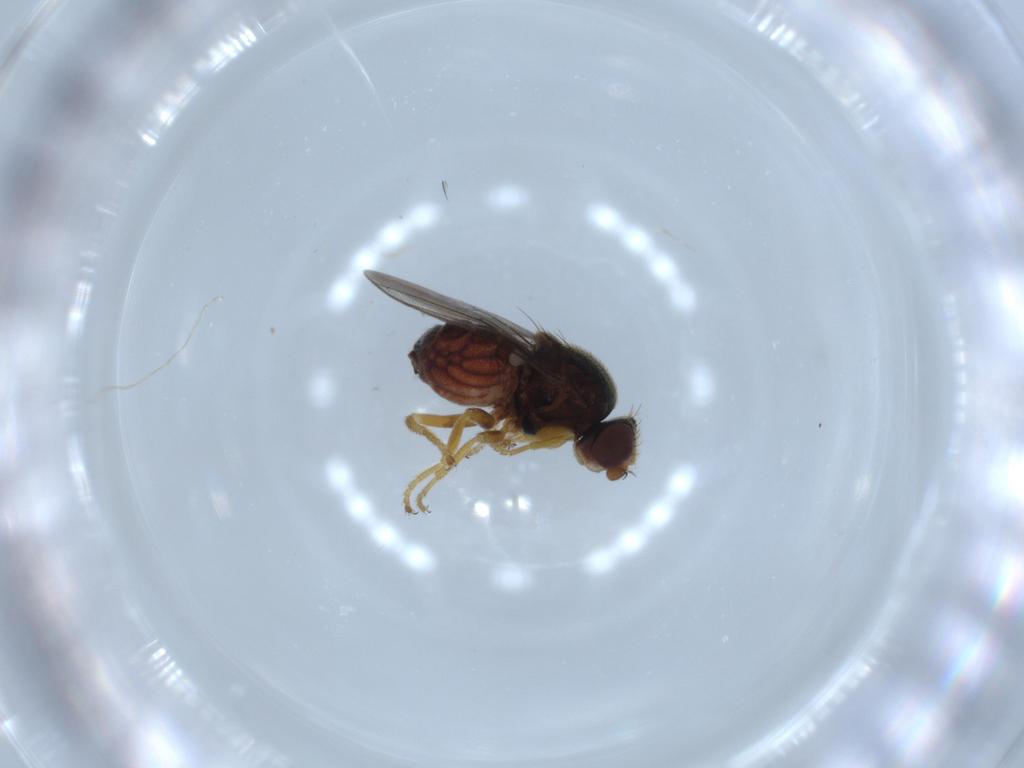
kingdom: Animalia
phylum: Arthropoda
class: Insecta
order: Diptera
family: Chloropidae
